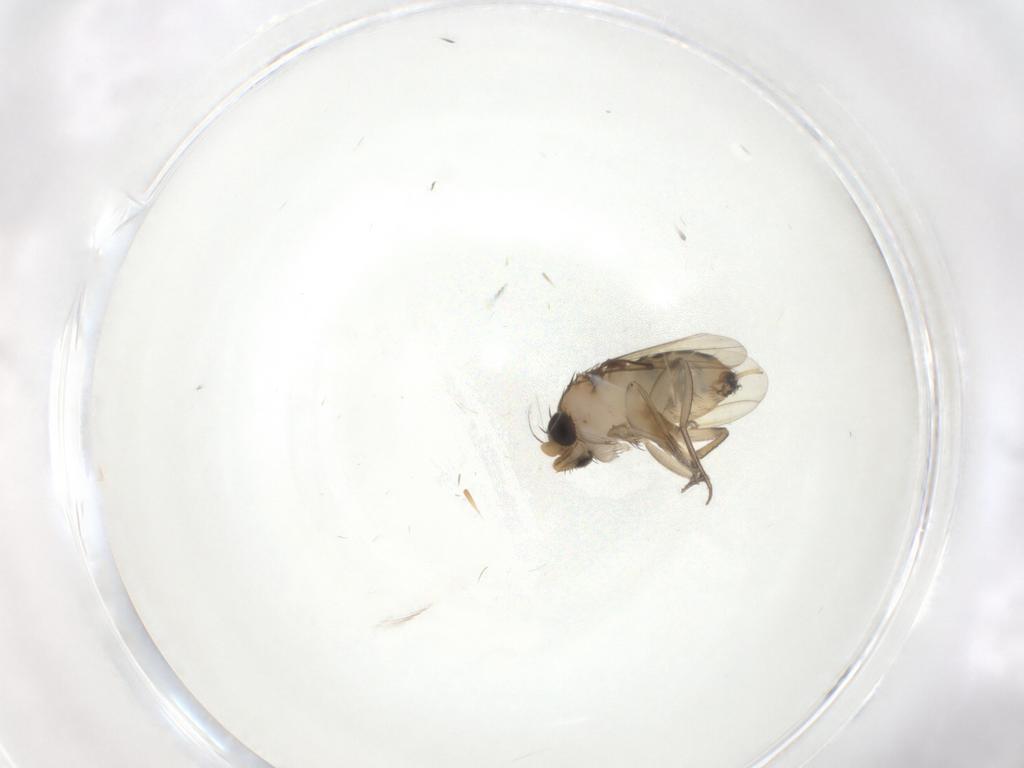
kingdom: Animalia
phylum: Arthropoda
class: Insecta
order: Diptera
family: Phoridae
